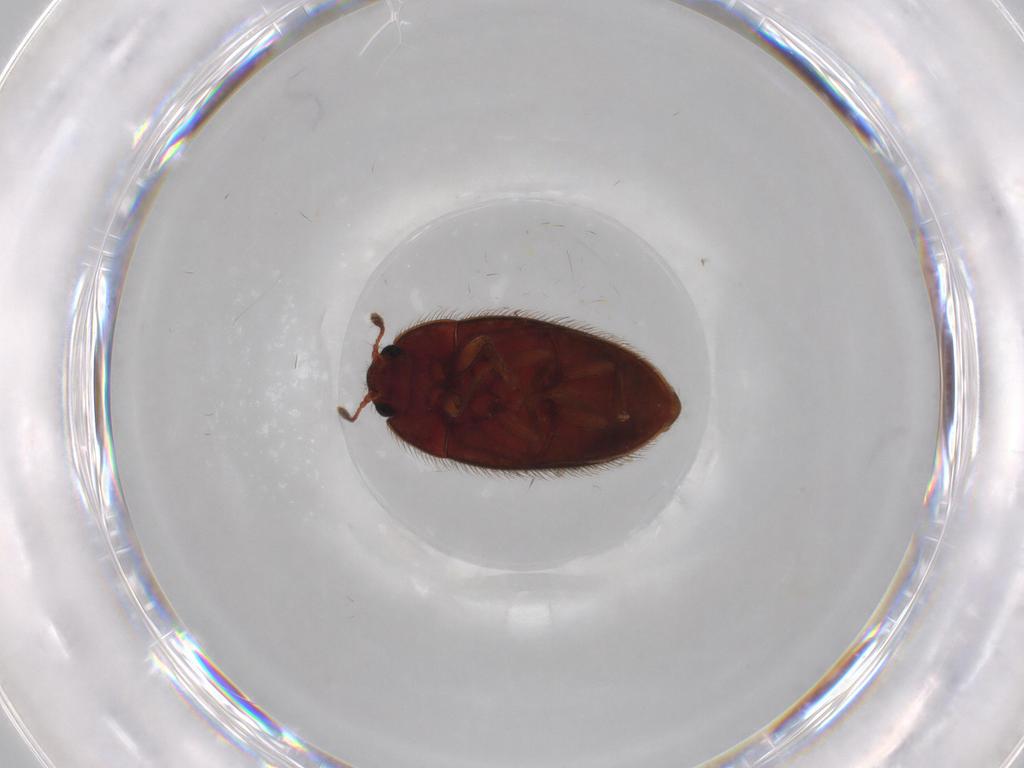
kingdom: Animalia
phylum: Arthropoda
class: Insecta
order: Coleoptera
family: Biphyllidae
